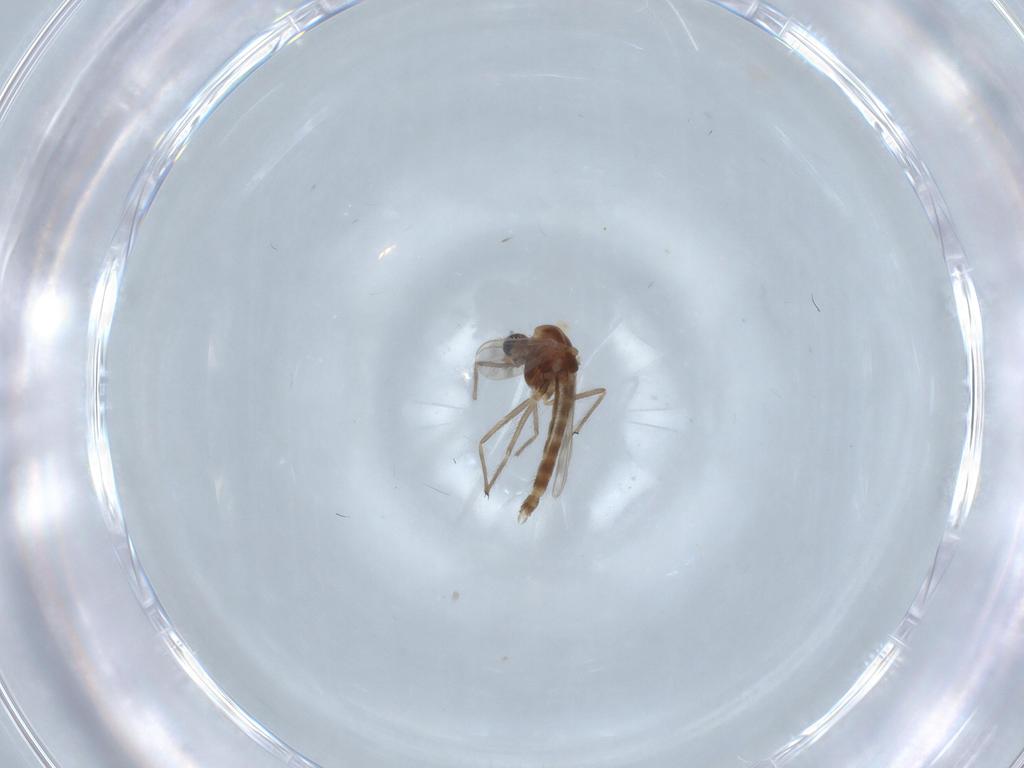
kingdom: Animalia
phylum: Arthropoda
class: Insecta
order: Diptera
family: Chironomidae
